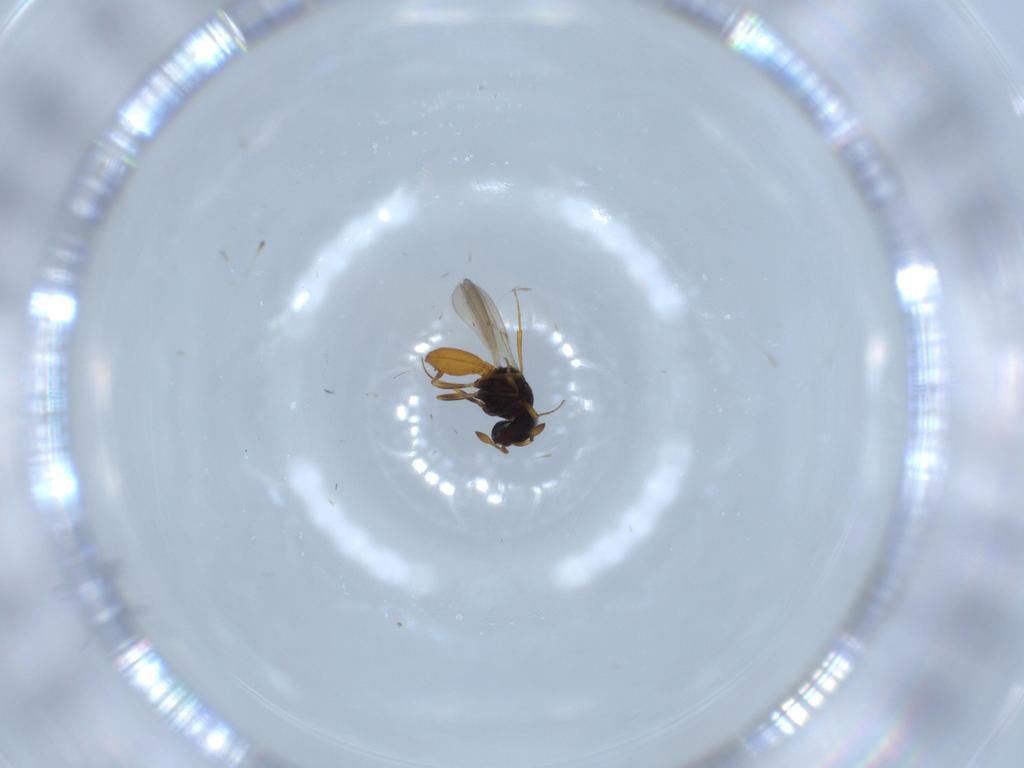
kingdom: Animalia
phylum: Arthropoda
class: Insecta
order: Hymenoptera
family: Scelionidae
